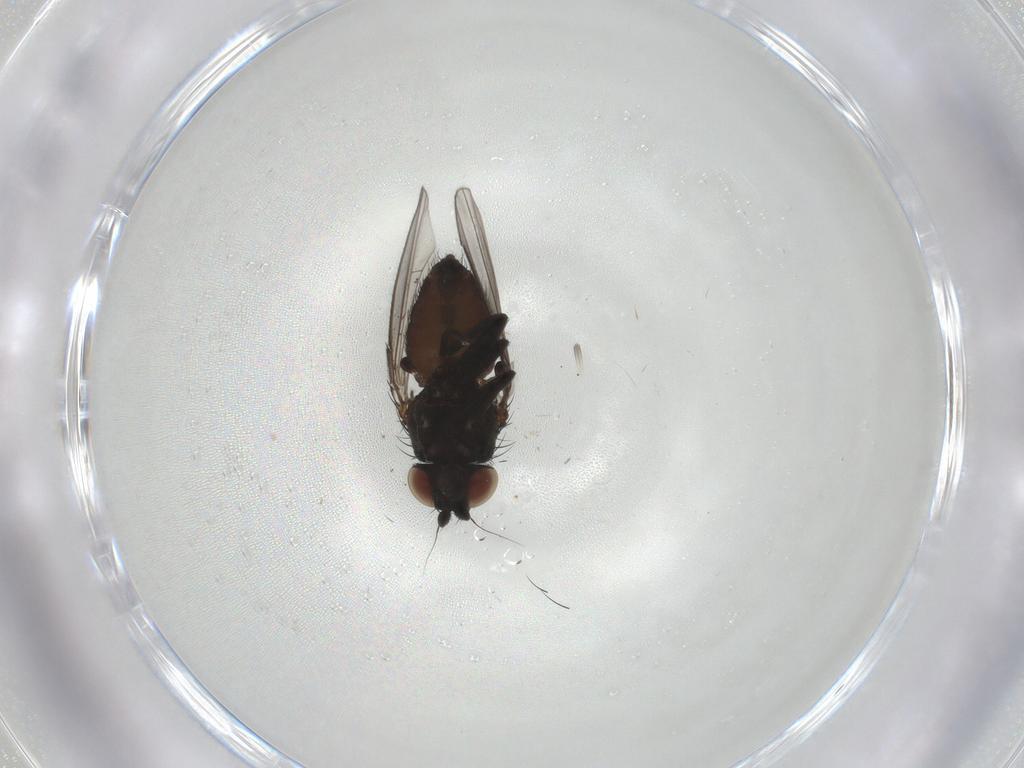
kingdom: Animalia
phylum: Arthropoda
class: Insecta
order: Diptera
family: Milichiidae
